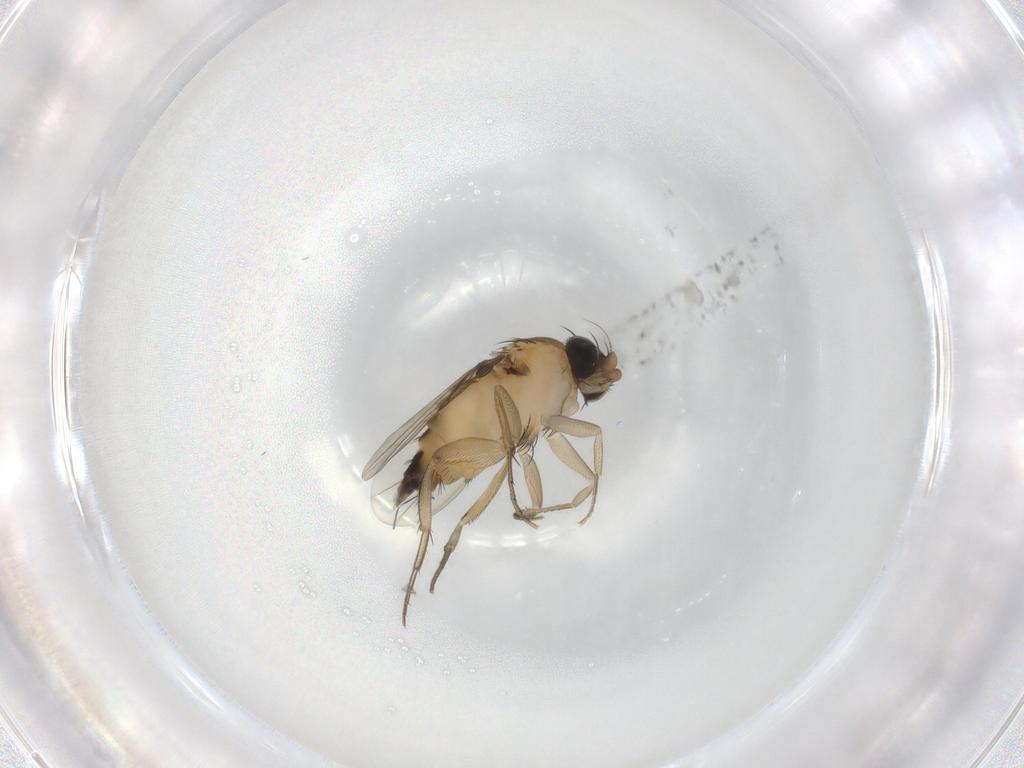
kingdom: Animalia
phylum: Arthropoda
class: Insecta
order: Diptera
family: Phoridae
